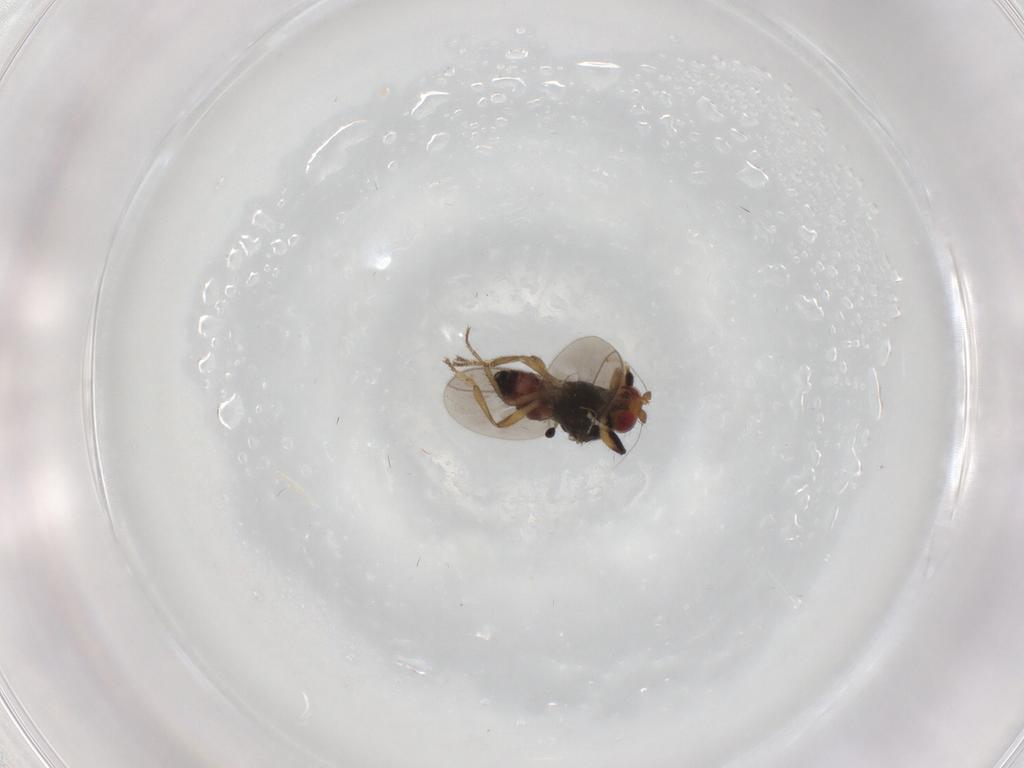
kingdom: Animalia
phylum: Arthropoda
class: Insecta
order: Diptera
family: Sphaeroceridae
